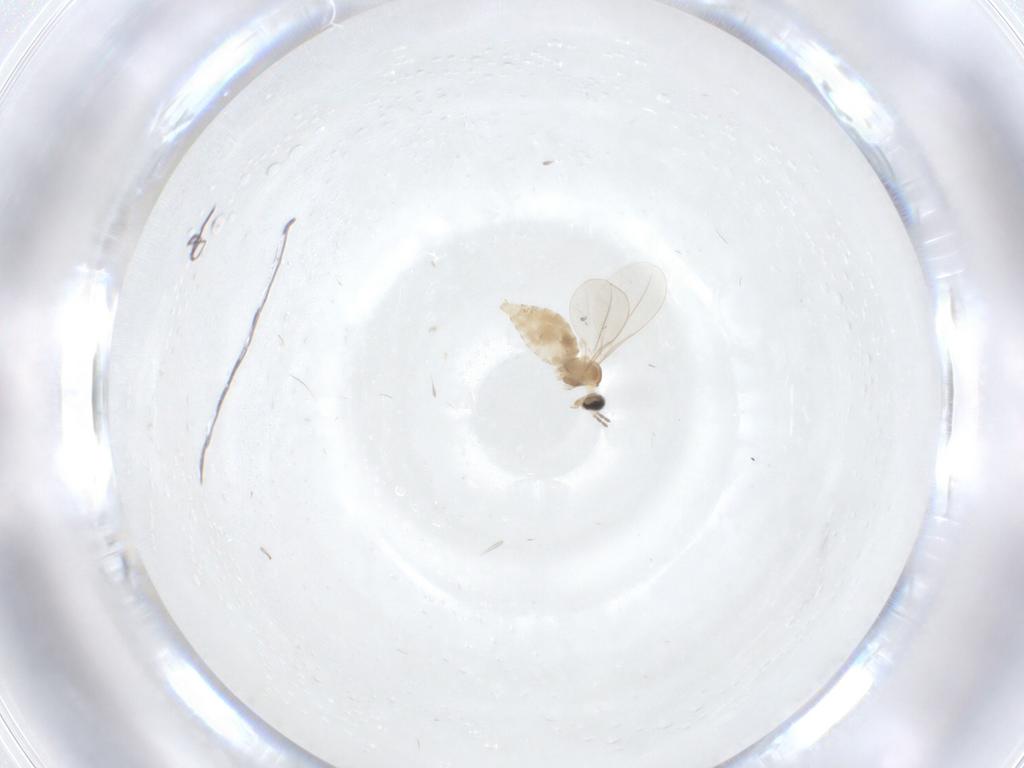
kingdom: Animalia
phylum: Arthropoda
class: Insecta
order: Diptera
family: Cecidomyiidae
